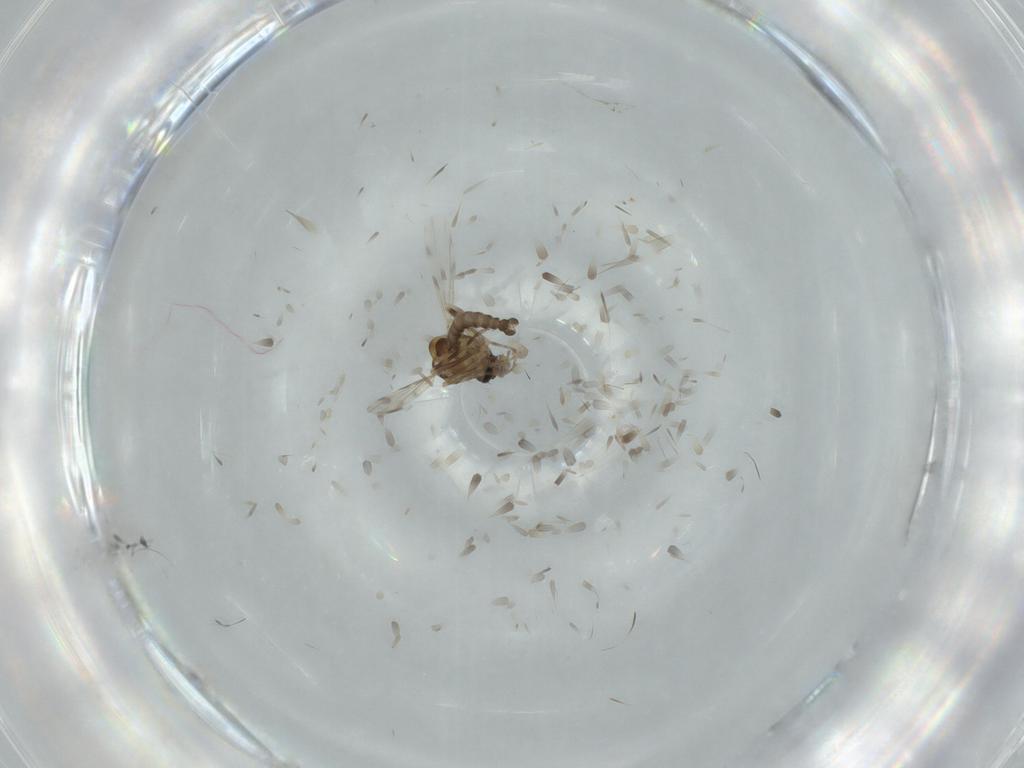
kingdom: Animalia
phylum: Arthropoda
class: Insecta
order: Diptera
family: Ceratopogonidae
